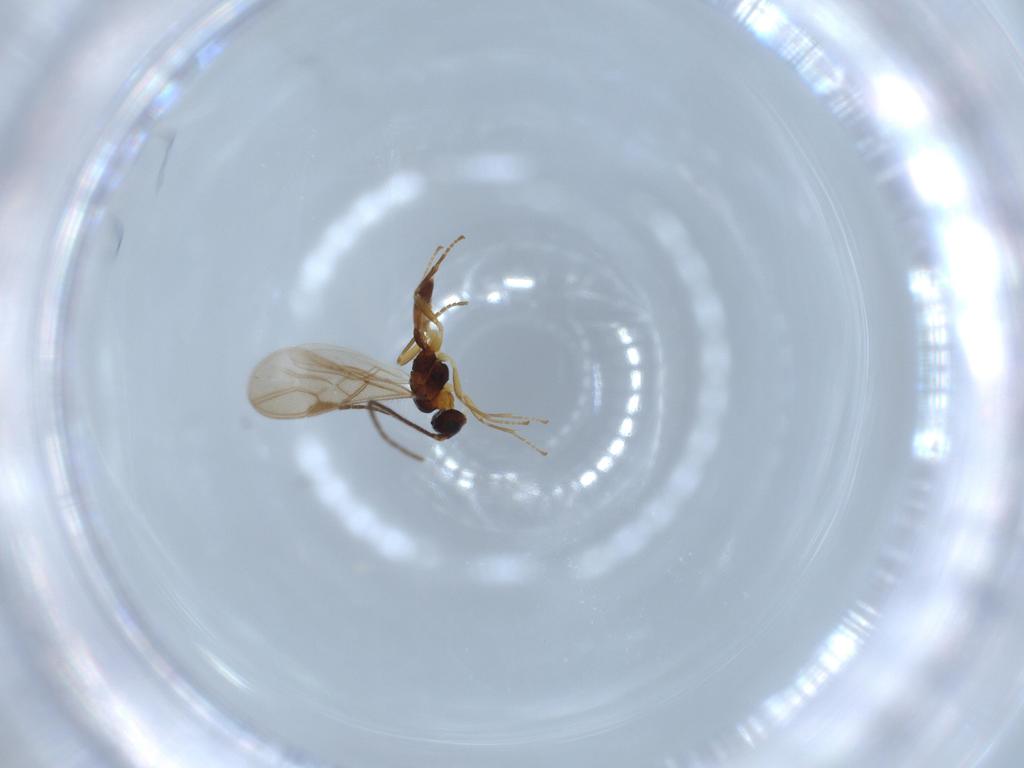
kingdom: Animalia
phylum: Arthropoda
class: Insecta
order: Hymenoptera
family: Braconidae
